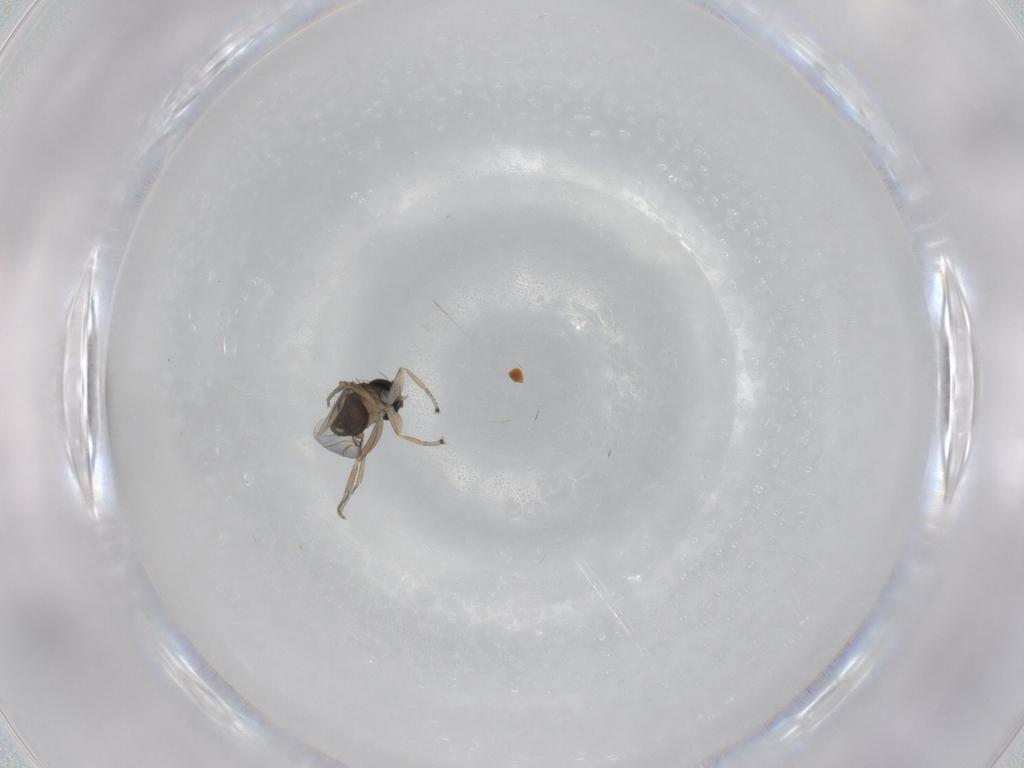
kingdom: Animalia
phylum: Arthropoda
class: Insecta
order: Diptera
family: Phoridae
